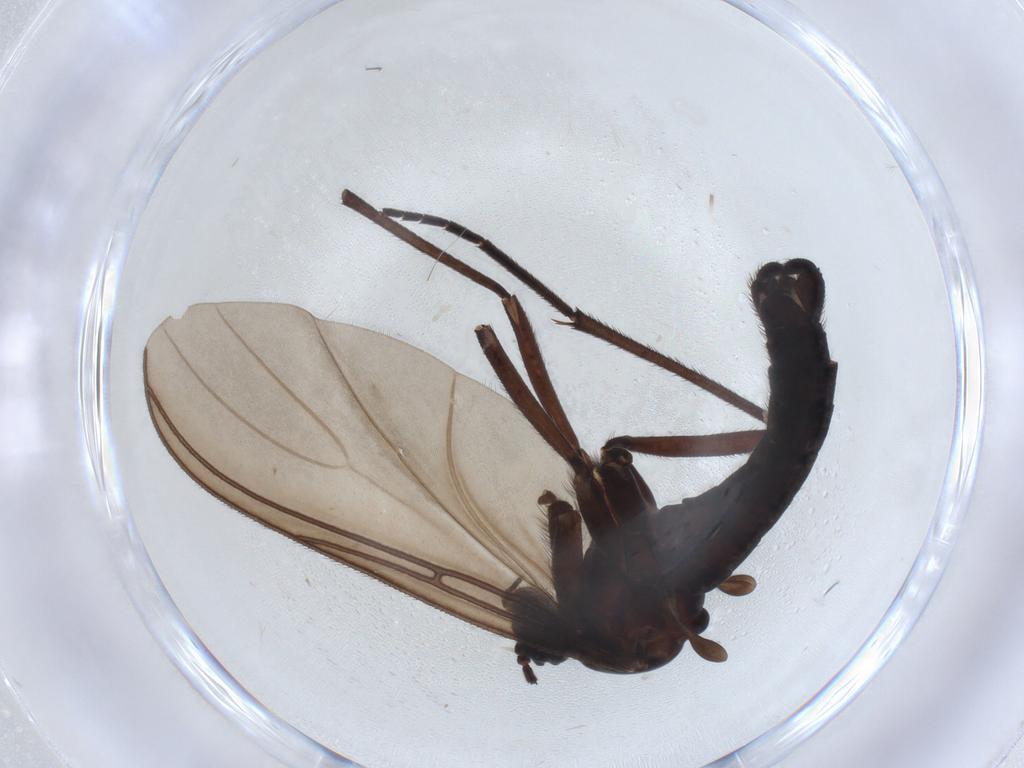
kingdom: Animalia
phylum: Arthropoda
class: Insecta
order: Diptera
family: Sciaridae
